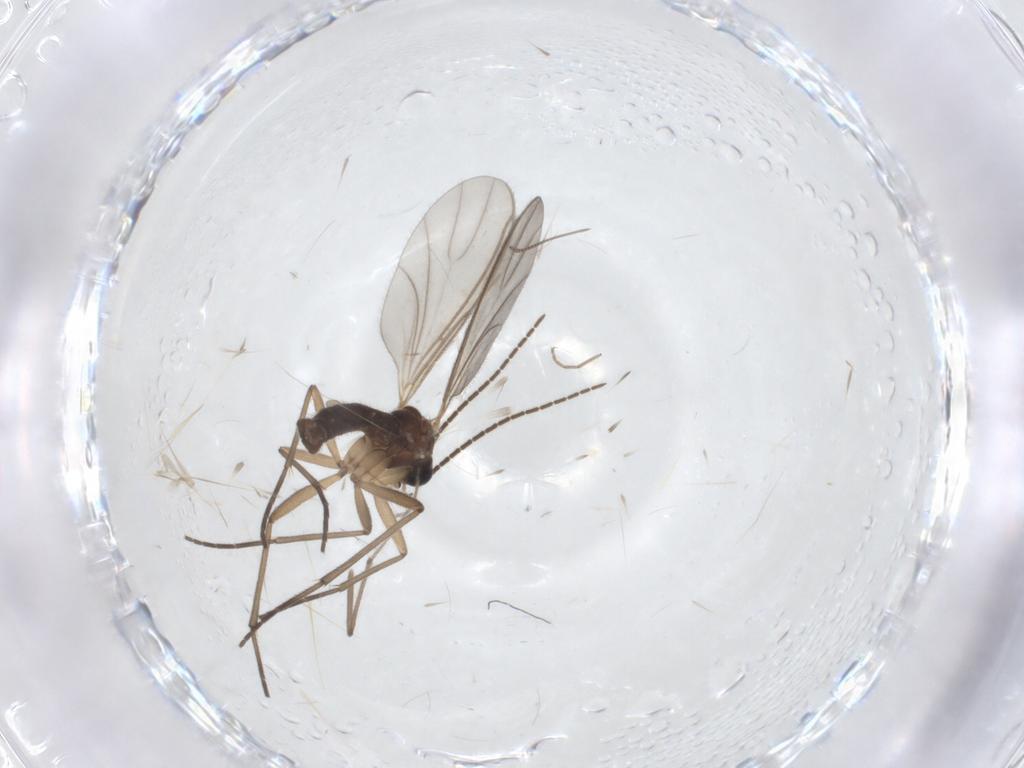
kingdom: Animalia
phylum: Arthropoda
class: Insecta
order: Diptera
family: Sciaridae
